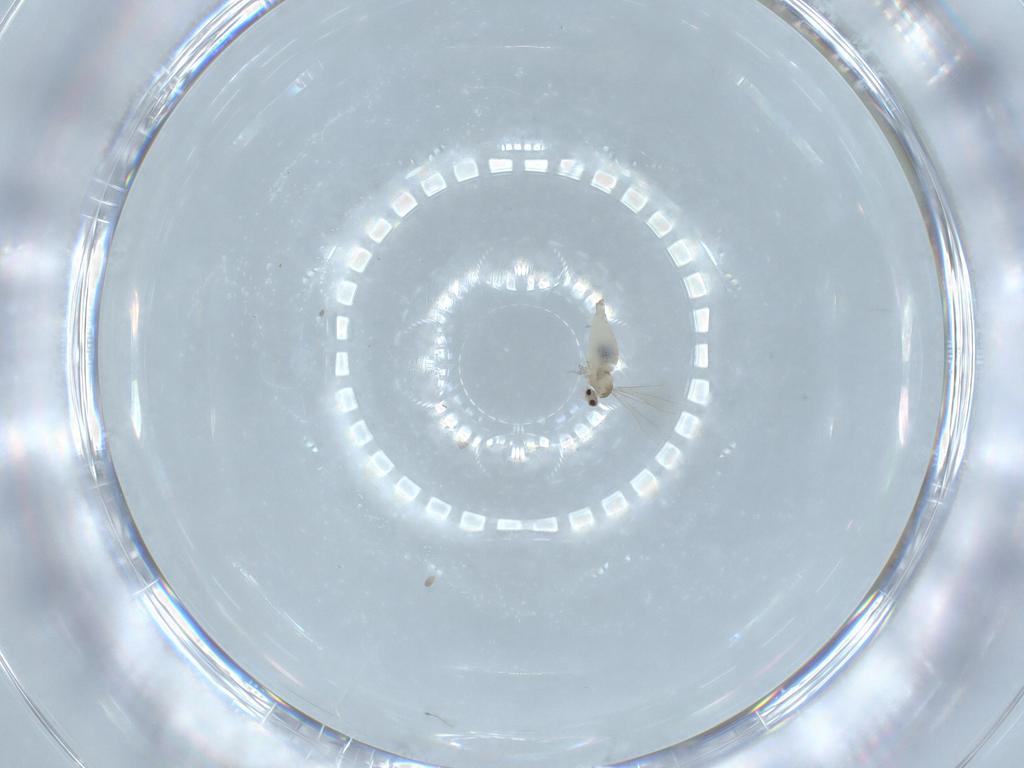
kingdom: Animalia
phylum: Arthropoda
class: Insecta
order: Diptera
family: Cecidomyiidae
